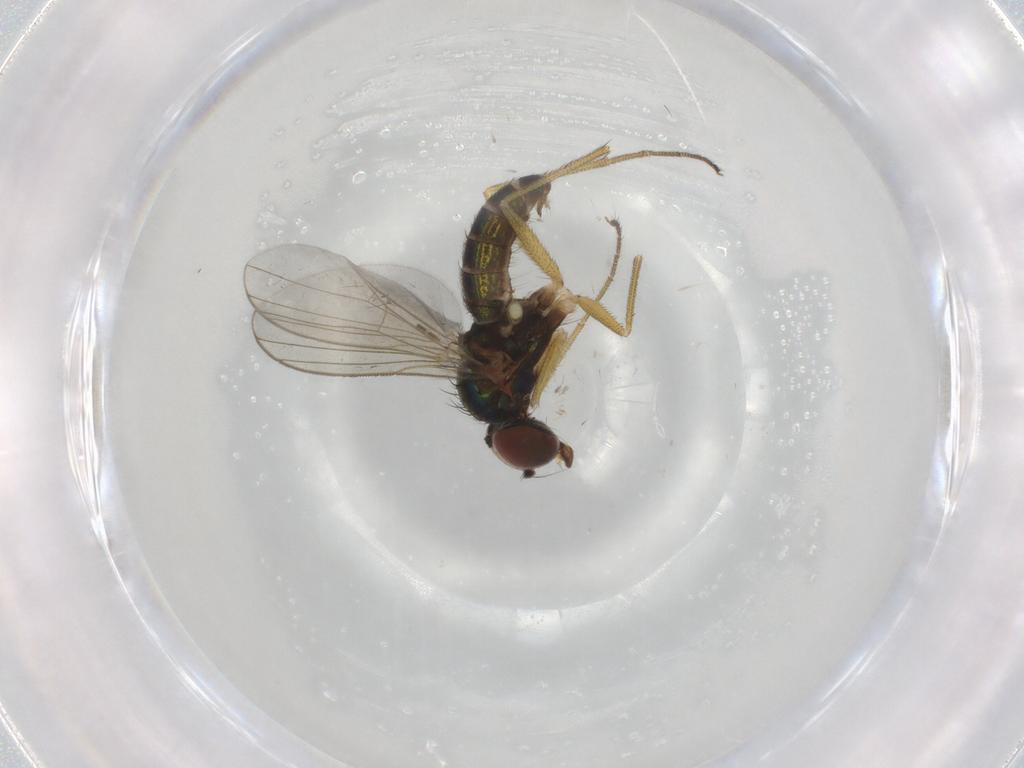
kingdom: Animalia
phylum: Arthropoda
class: Insecta
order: Diptera
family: Dolichopodidae
